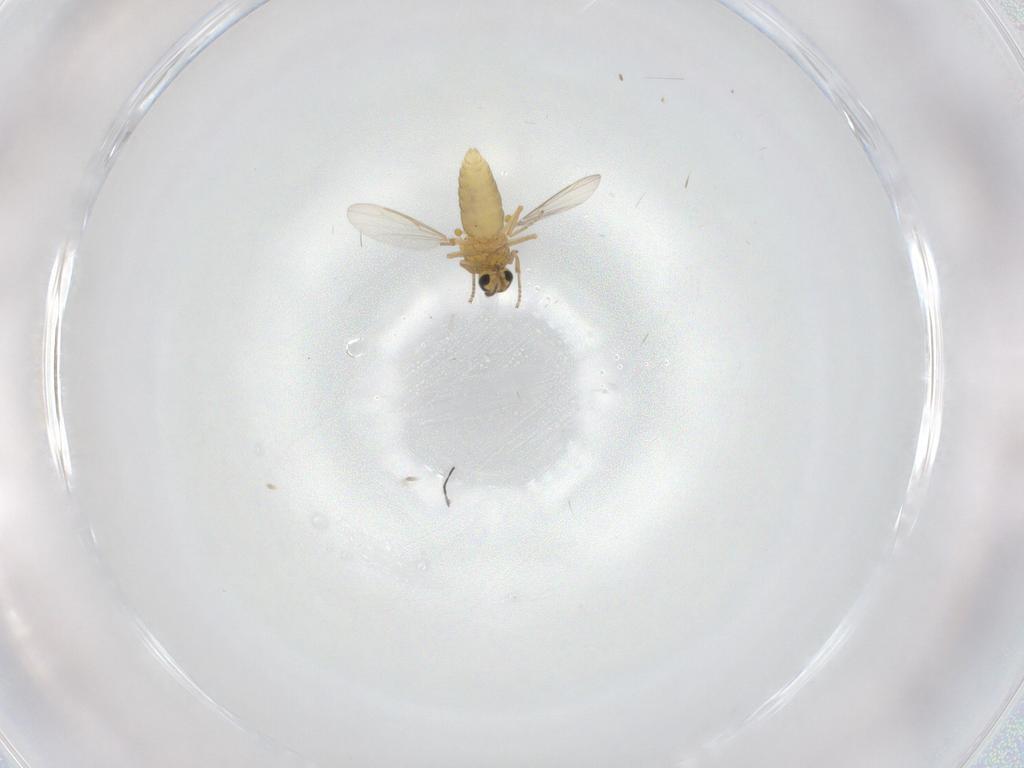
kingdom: Animalia
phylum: Arthropoda
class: Insecta
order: Diptera
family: Ceratopogonidae
